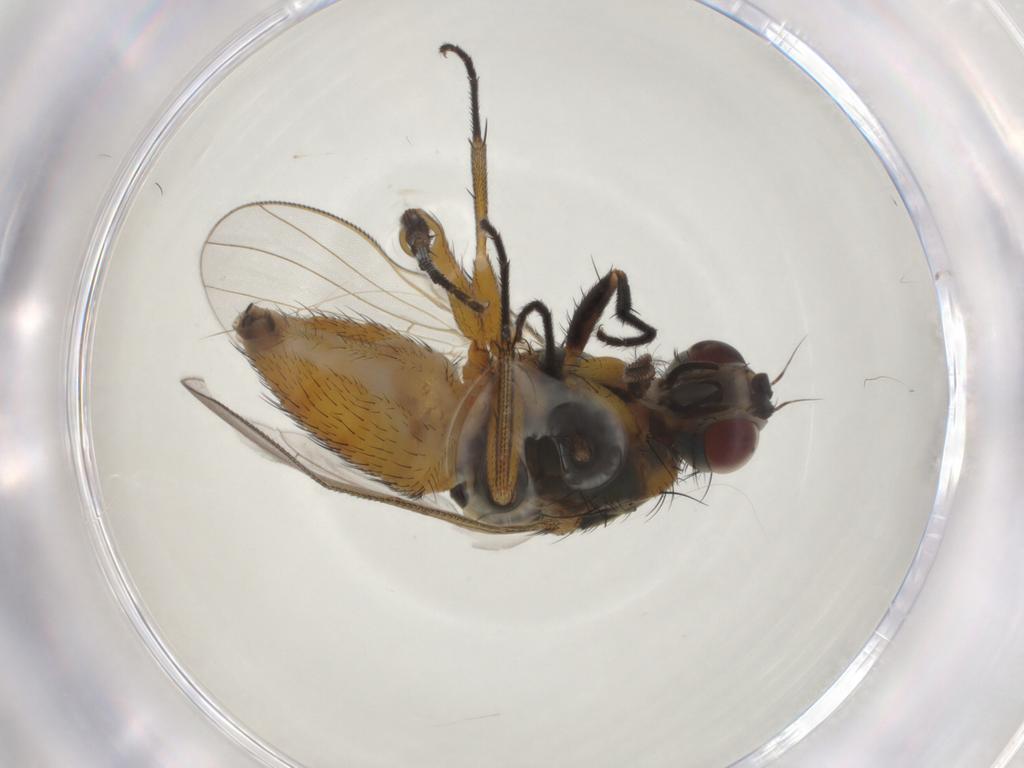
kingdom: Animalia
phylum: Arthropoda
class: Insecta
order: Diptera
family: Muscidae
